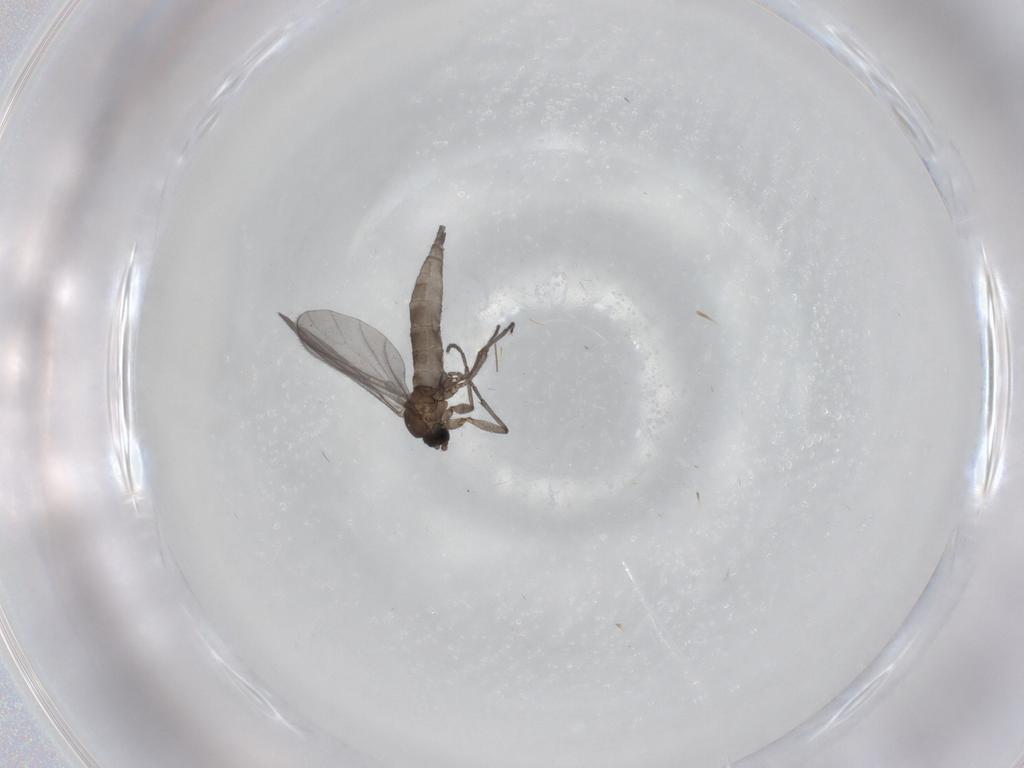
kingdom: Animalia
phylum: Arthropoda
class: Insecta
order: Diptera
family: Sciaridae
